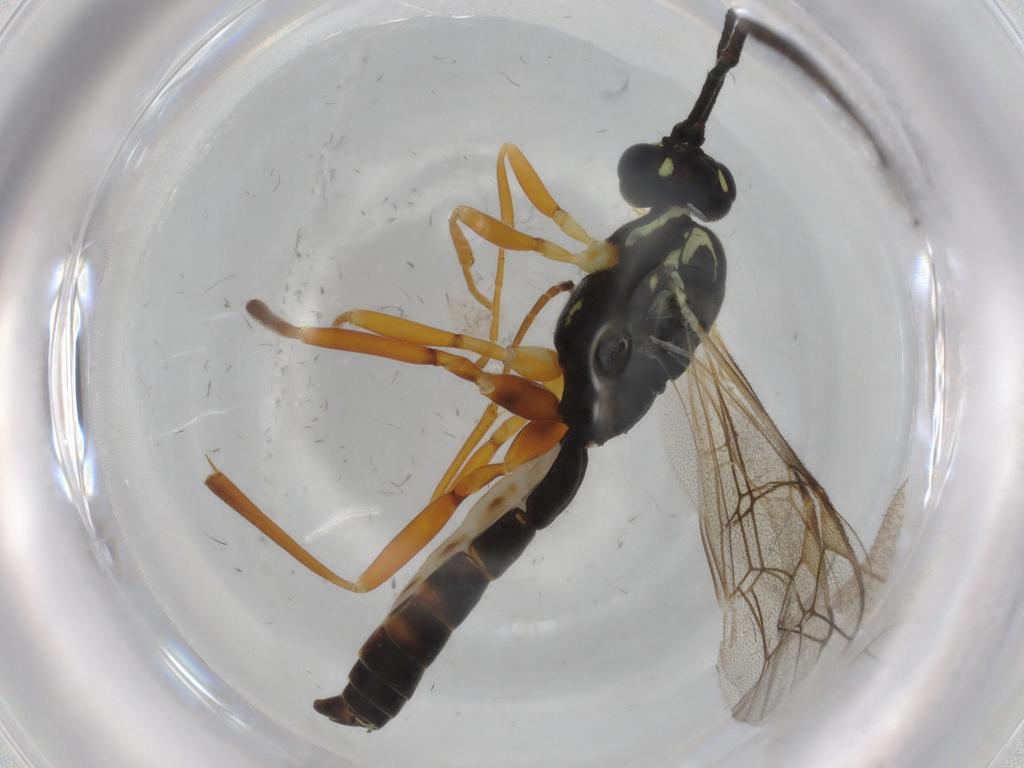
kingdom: Animalia
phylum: Arthropoda
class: Insecta
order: Hymenoptera
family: Ichneumonidae
